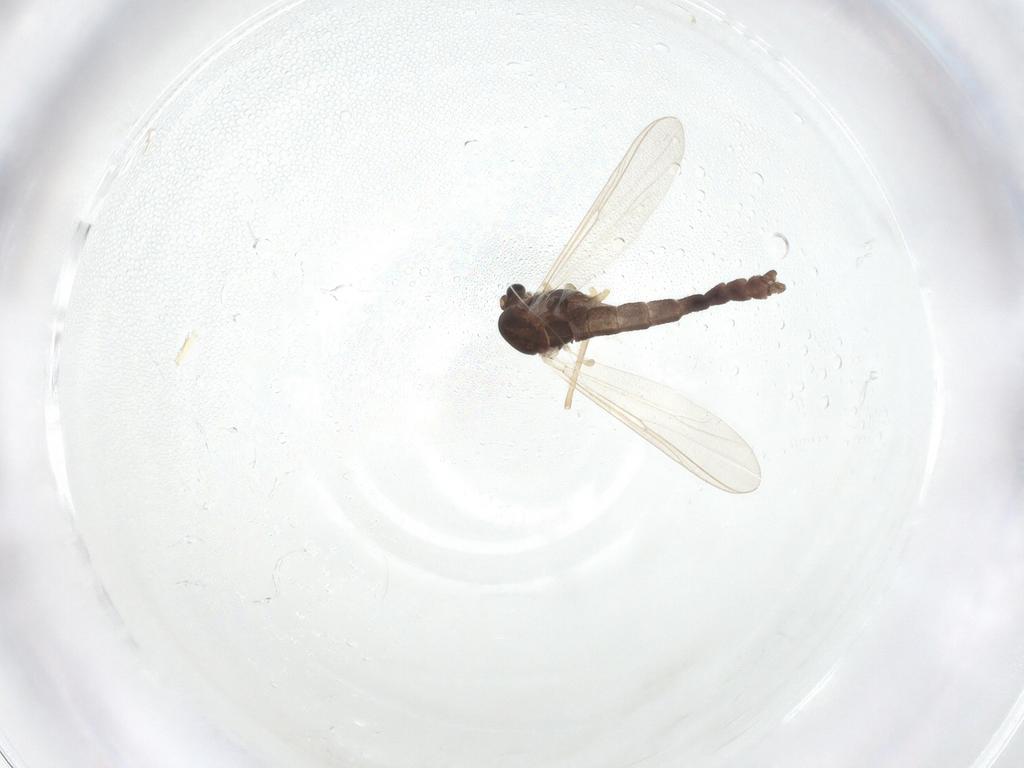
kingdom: Animalia
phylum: Arthropoda
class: Insecta
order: Diptera
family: Chironomidae
